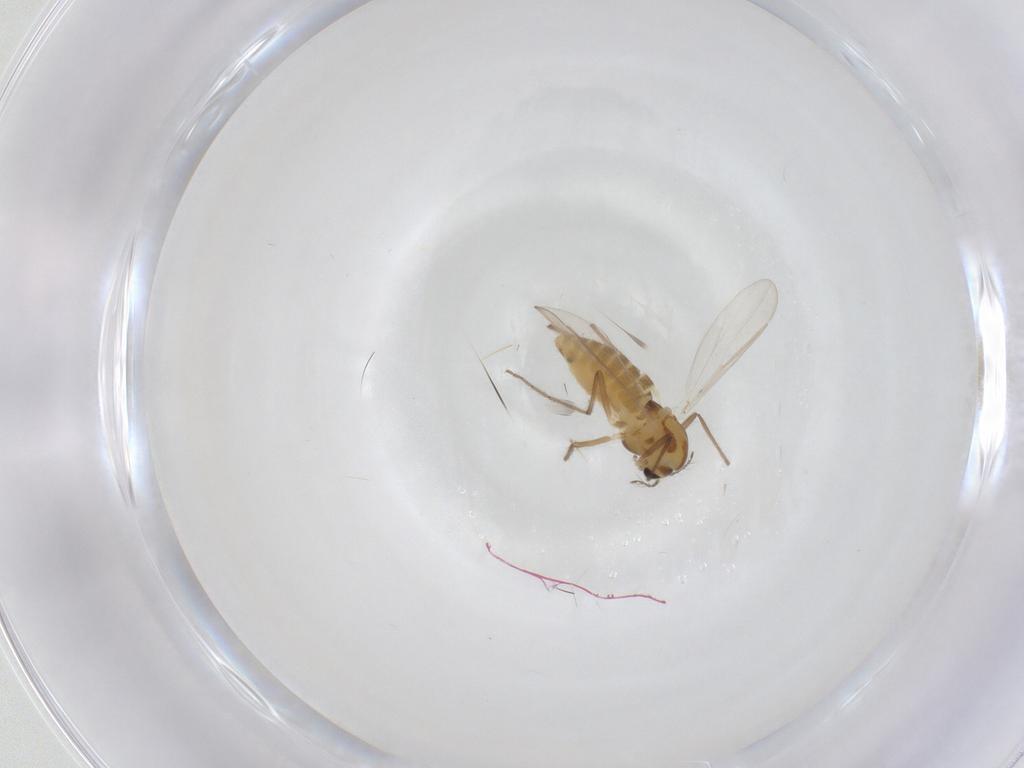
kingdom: Animalia
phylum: Arthropoda
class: Insecta
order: Diptera
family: Chironomidae
